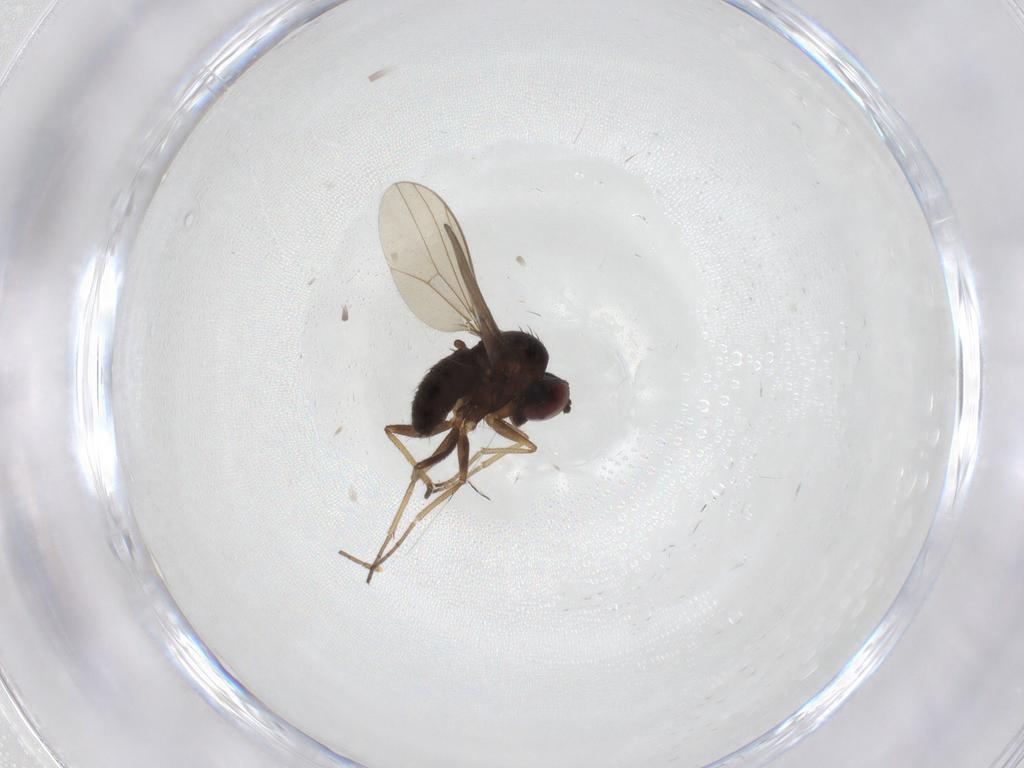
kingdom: Animalia
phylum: Arthropoda
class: Insecta
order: Diptera
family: Dolichopodidae
